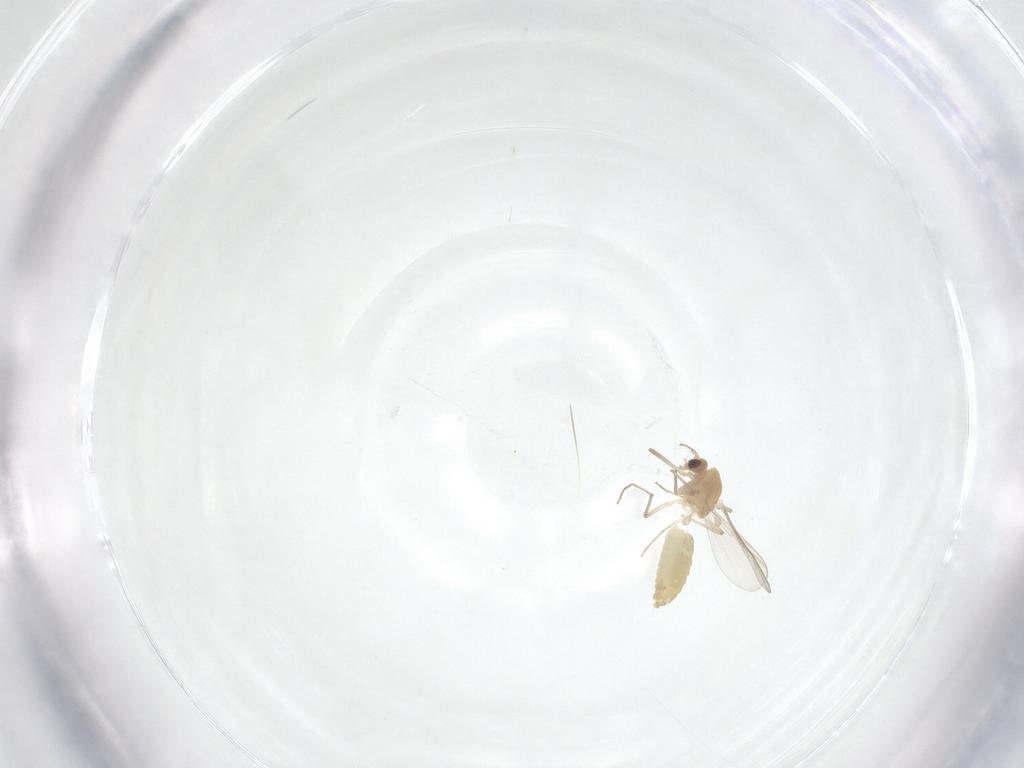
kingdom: Animalia
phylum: Arthropoda
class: Insecta
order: Diptera
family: Chironomidae
